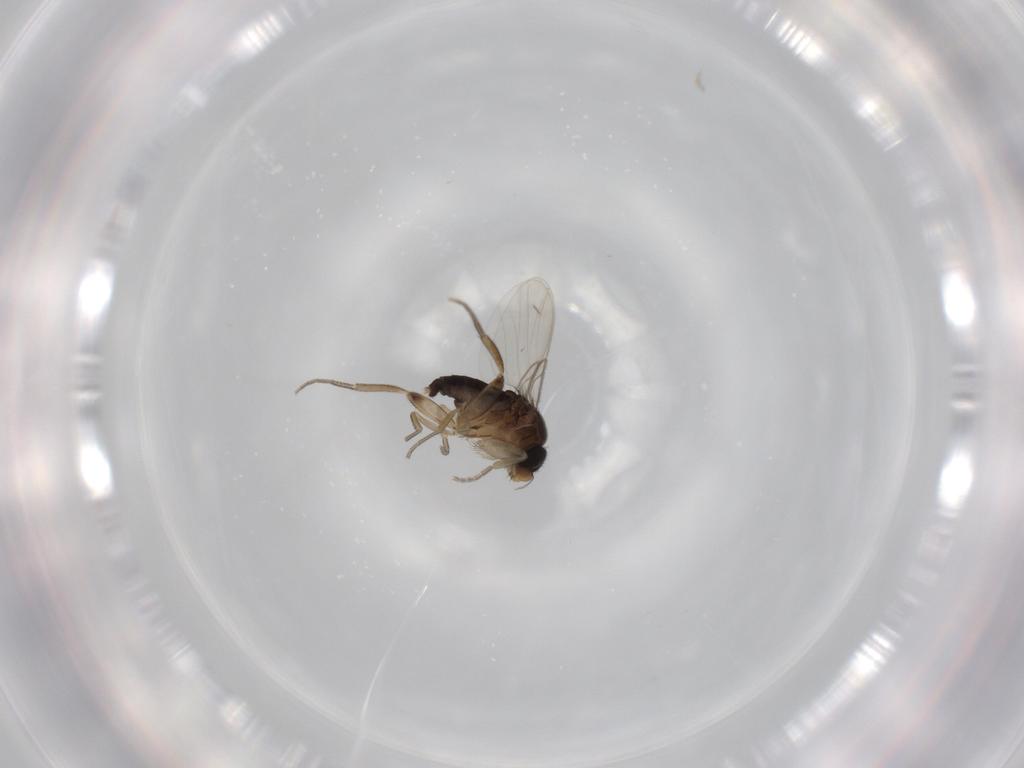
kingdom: Animalia
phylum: Arthropoda
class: Insecta
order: Diptera
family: Phoridae
